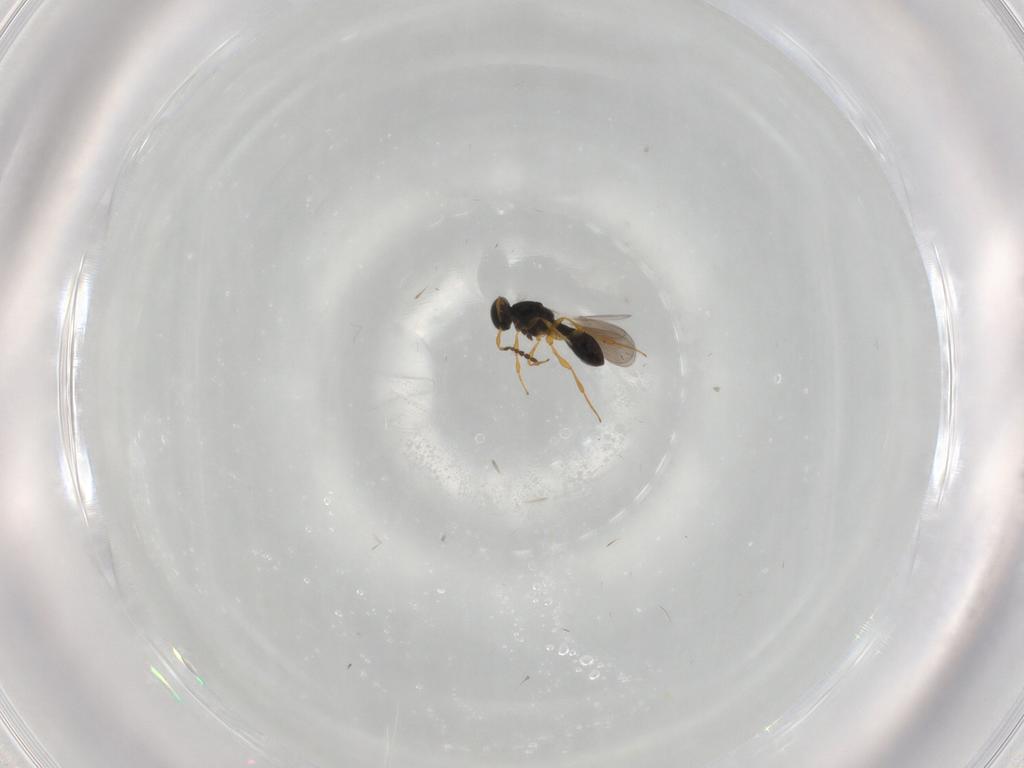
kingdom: Animalia
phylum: Arthropoda
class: Insecta
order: Hymenoptera
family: Platygastridae
